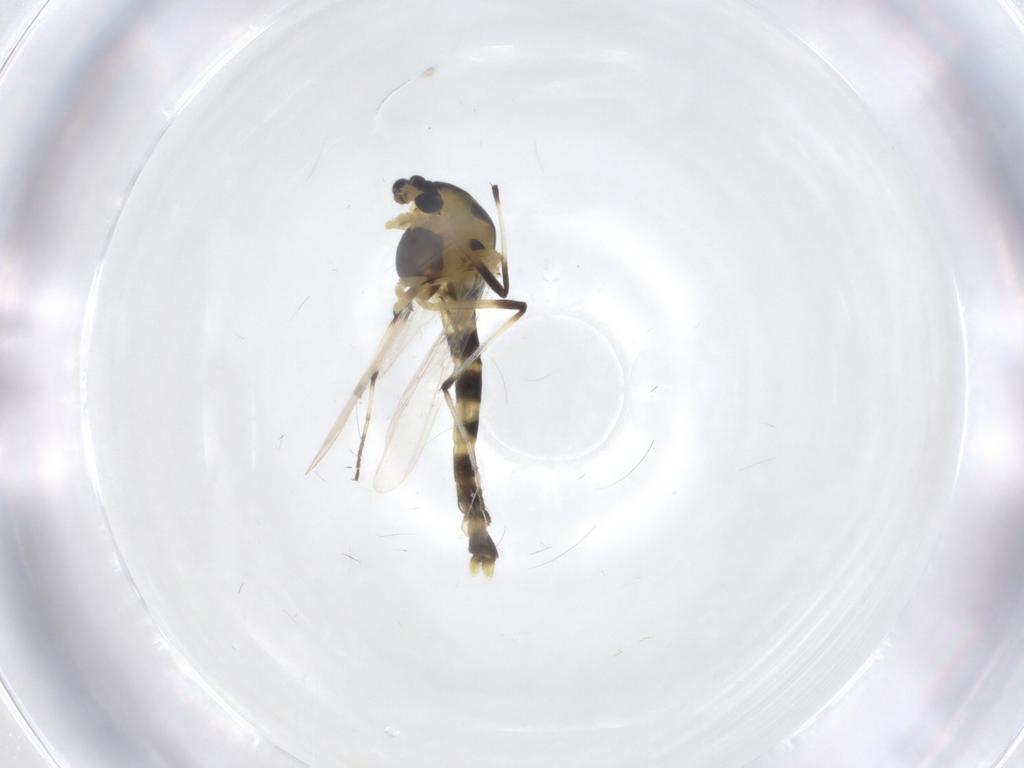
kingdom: Animalia
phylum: Arthropoda
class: Insecta
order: Diptera
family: Chironomidae
